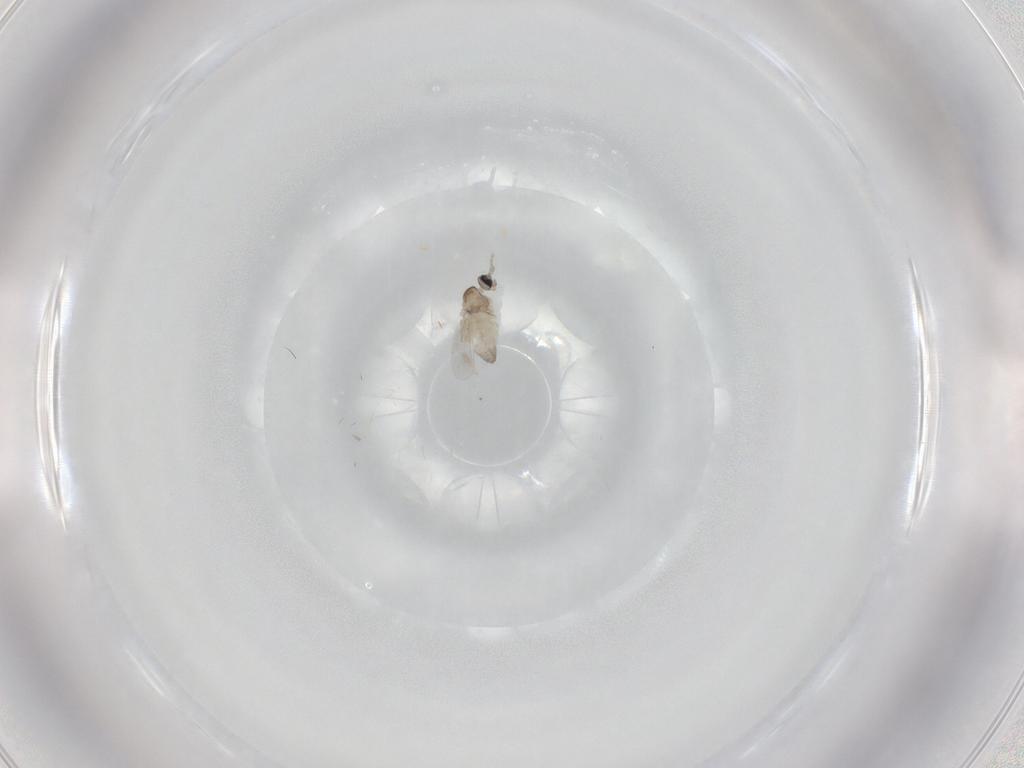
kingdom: Animalia
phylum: Arthropoda
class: Insecta
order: Diptera
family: Cecidomyiidae
